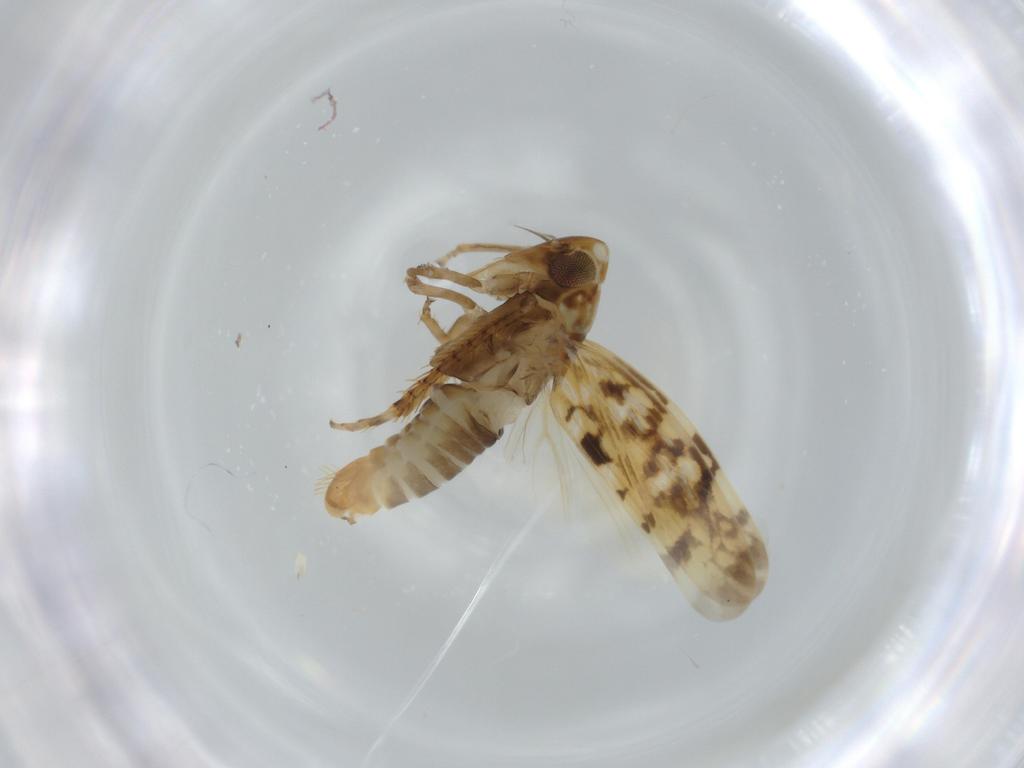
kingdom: Animalia
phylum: Arthropoda
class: Insecta
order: Hemiptera
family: Cicadellidae
